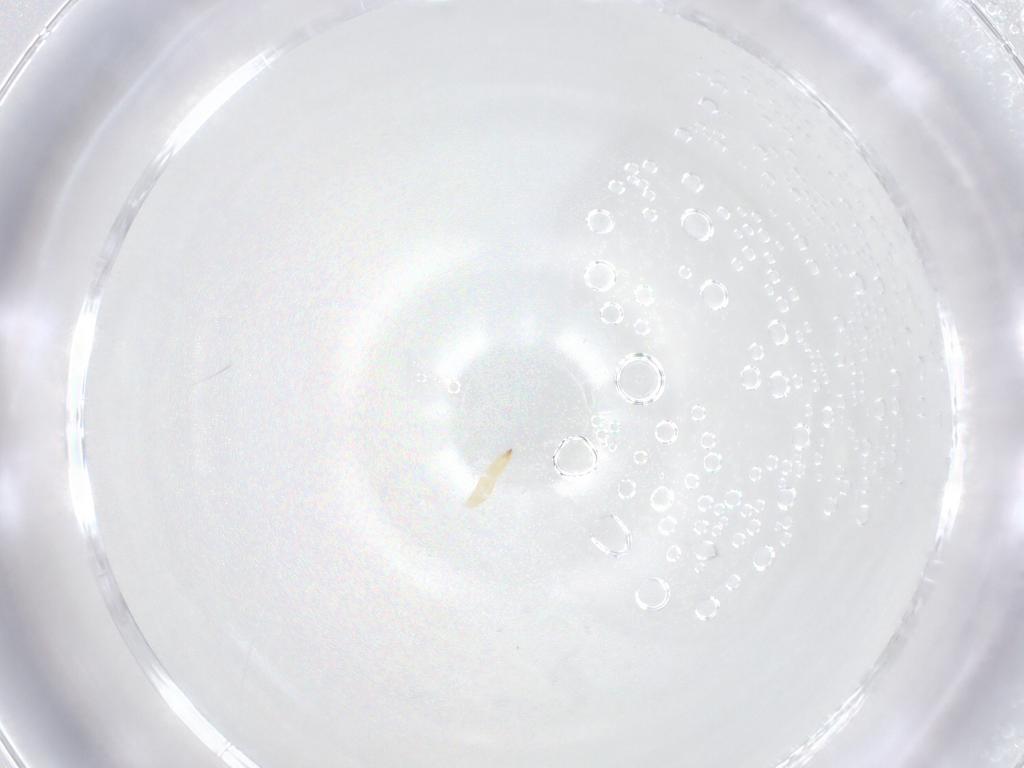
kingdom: Animalia
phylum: Arthropoda
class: Insecta
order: Diptera
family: Tachinidae
